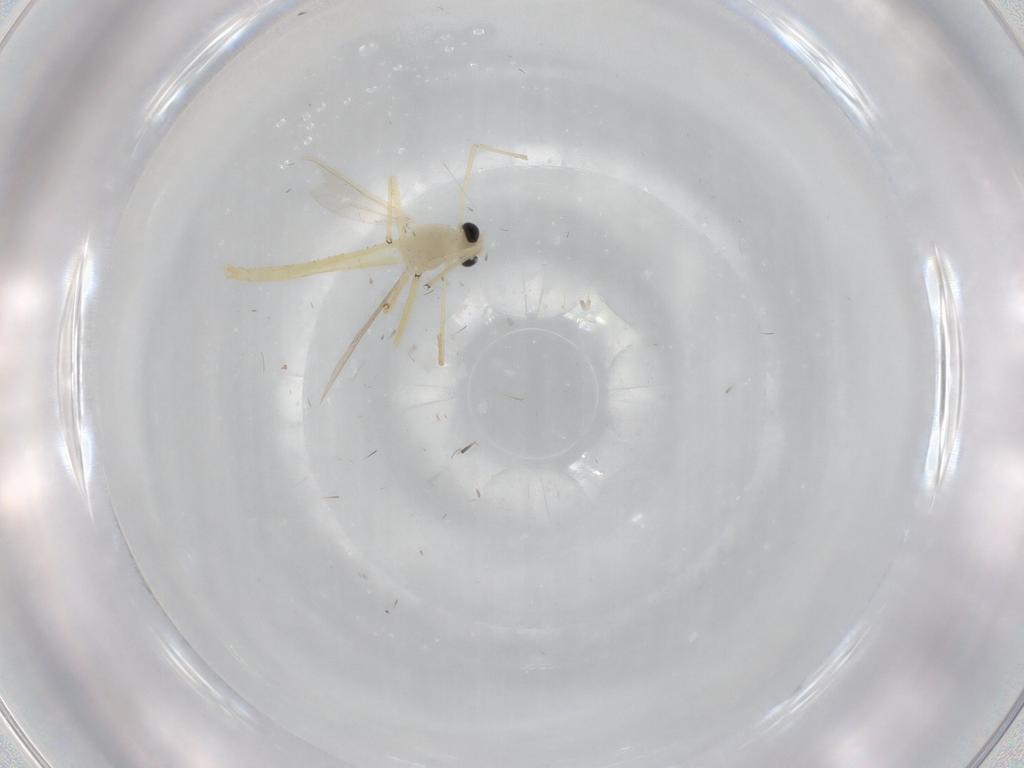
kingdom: Animalia
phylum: Arthropoda
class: Insecta
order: Diptera
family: Chironomidae
